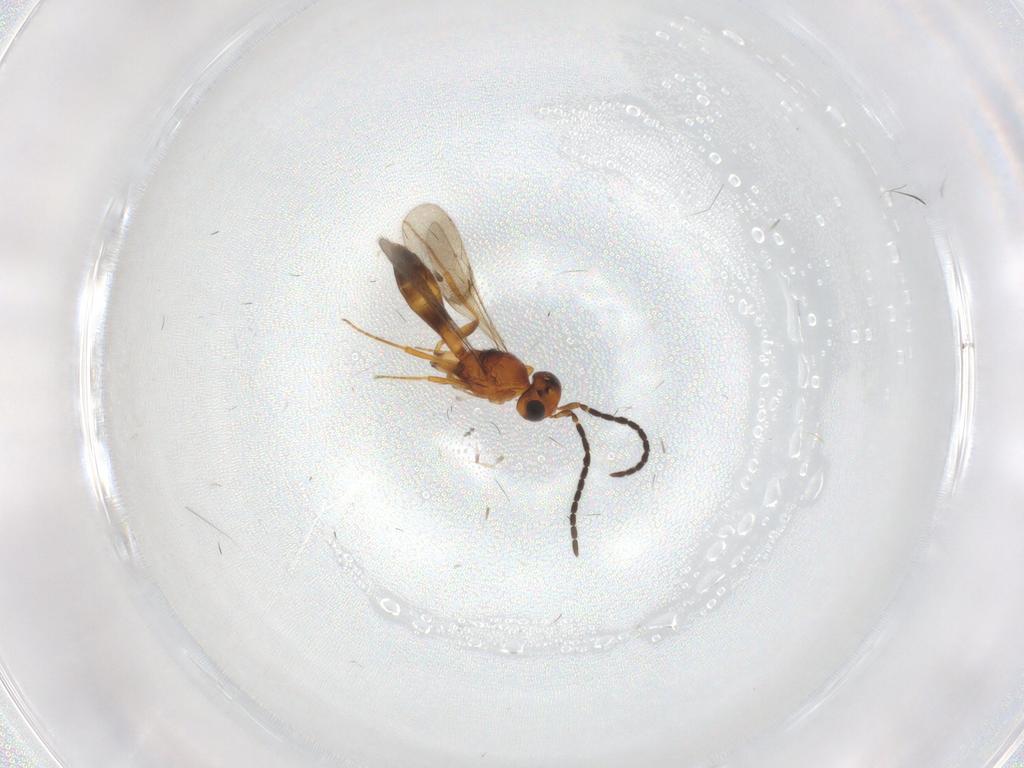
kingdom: Animalia
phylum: Arthropoda
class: Insecta
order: Hymenoptera
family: Scelionidae
